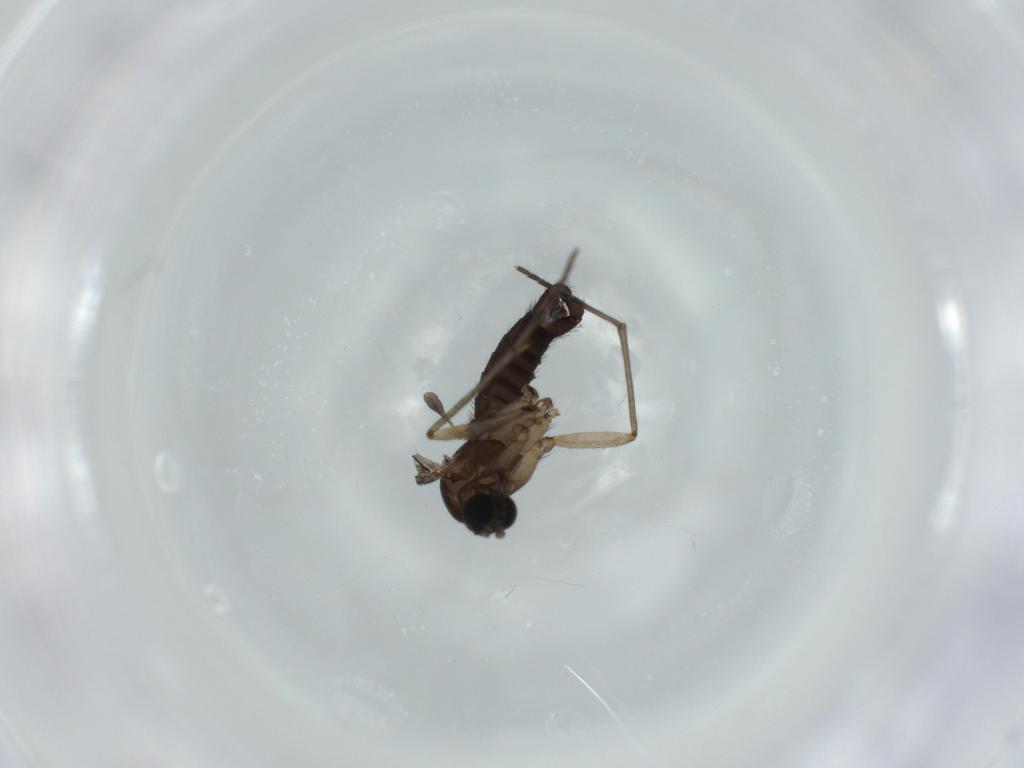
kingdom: Animalia
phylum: Arthropoda
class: Insecta
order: Diptera
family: Sciaridae
